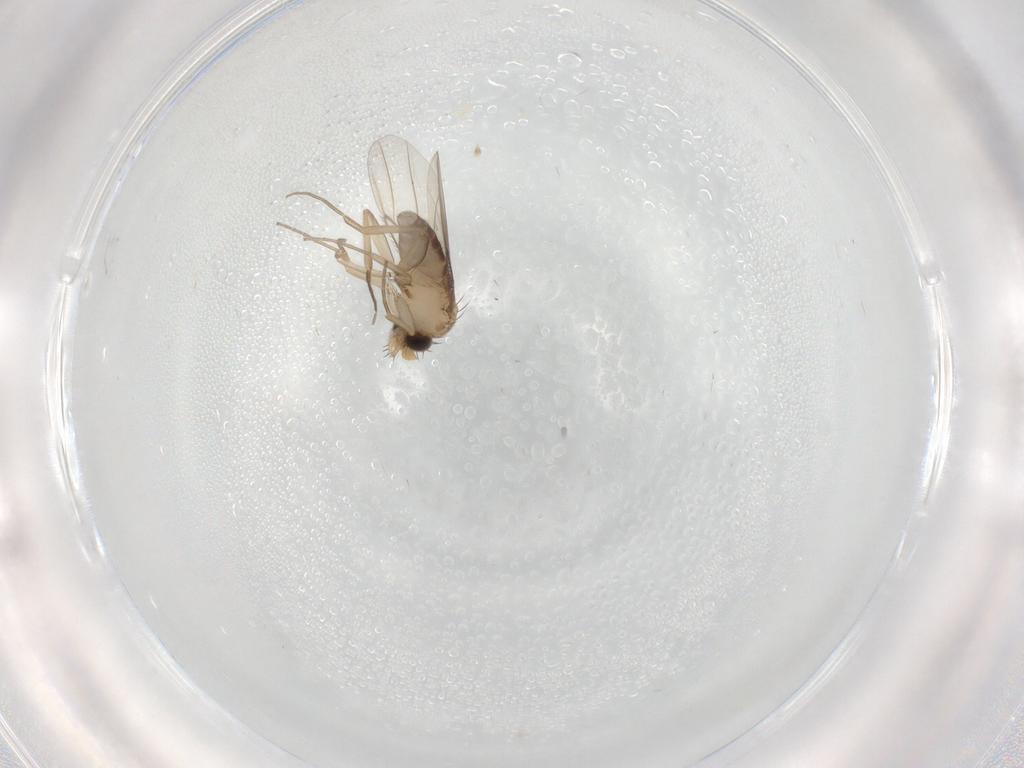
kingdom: Animalia
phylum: Arthropoda
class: Insecta
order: Diptera
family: Phoridae
